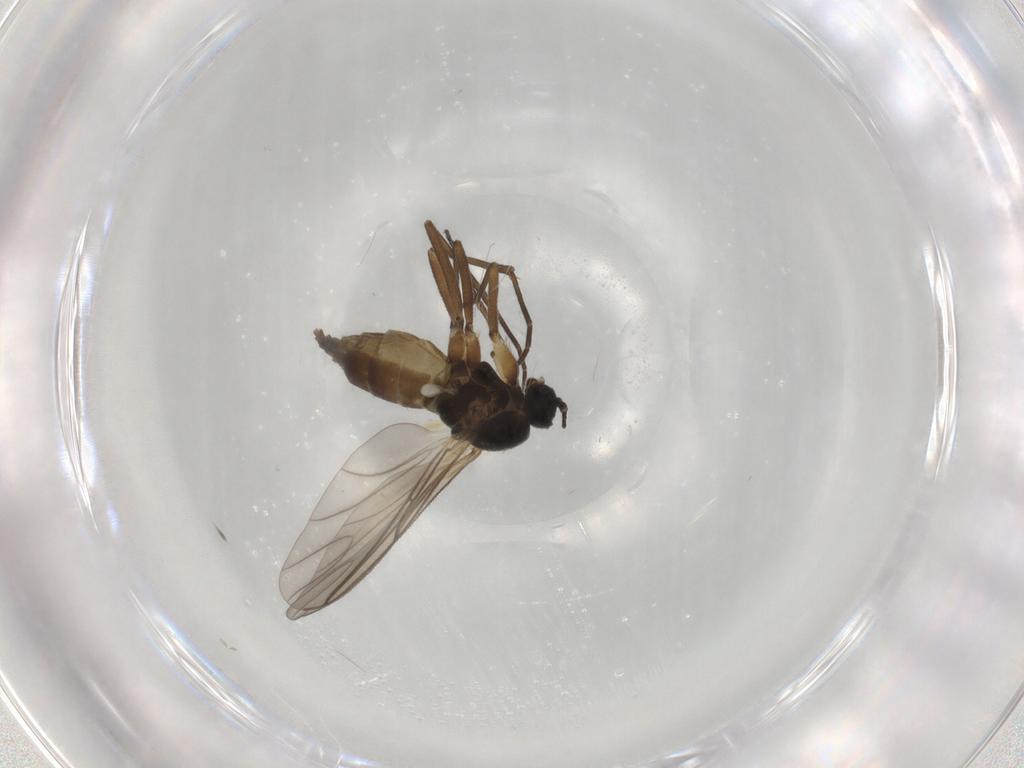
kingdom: Animalia
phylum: Arthropoda
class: Insecta
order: Diptera
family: Sciaridae
